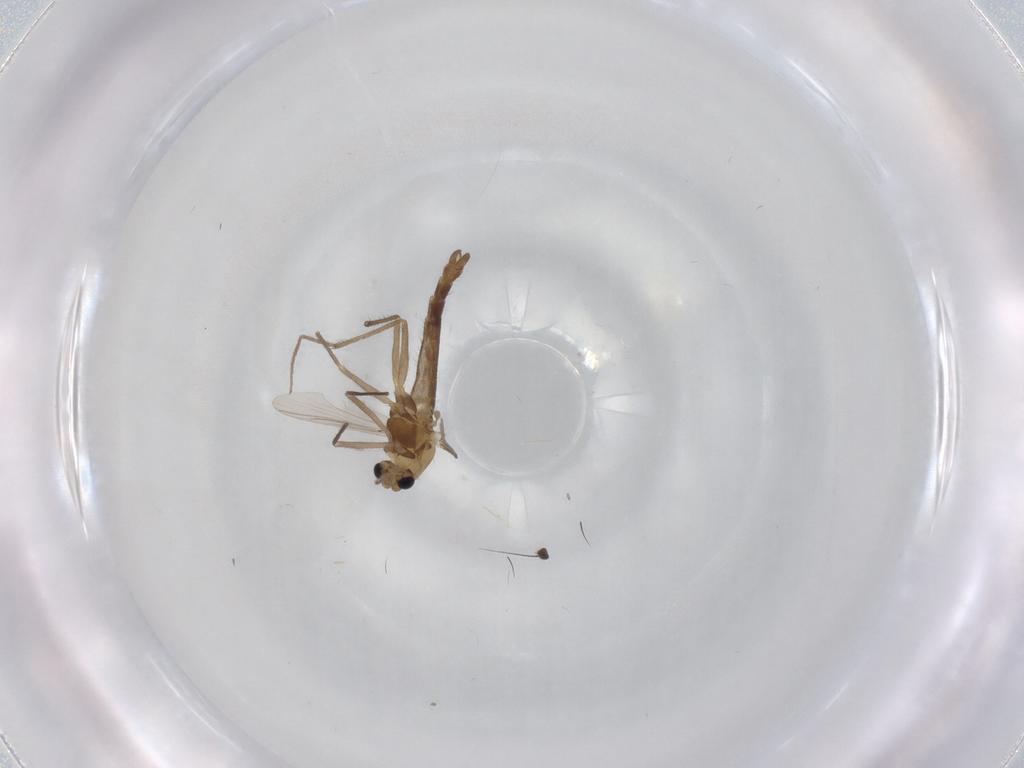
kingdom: Animalia
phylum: Arthropoda
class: Insecta
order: Diptera
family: Chironomidae
